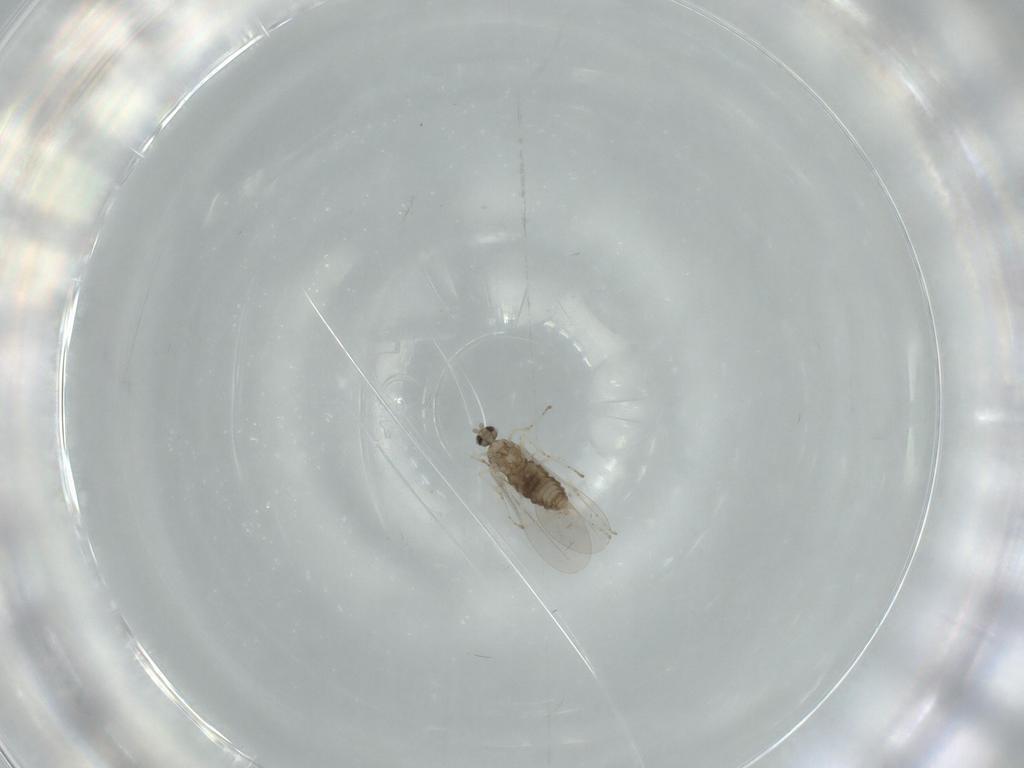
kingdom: Animalia
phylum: Arthropoda
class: Insecta
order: Diptera
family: Cecidomyiidae
